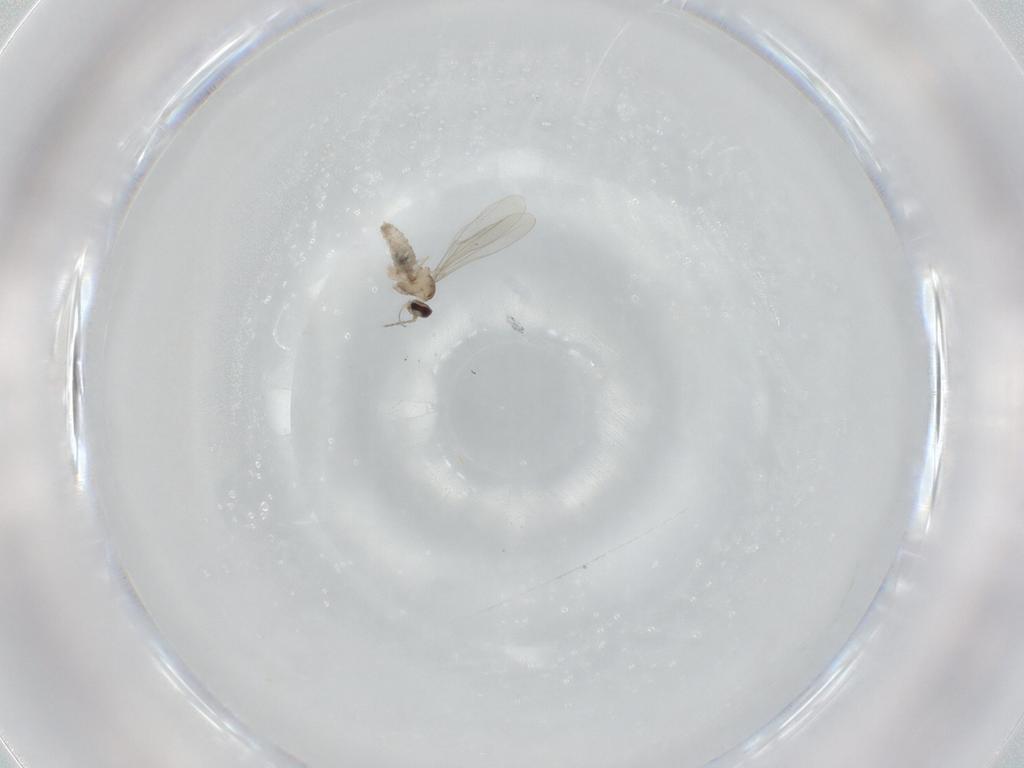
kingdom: Animalia
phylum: Arthropoda
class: Insecta
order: Diptera
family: Cecidomyiidae
